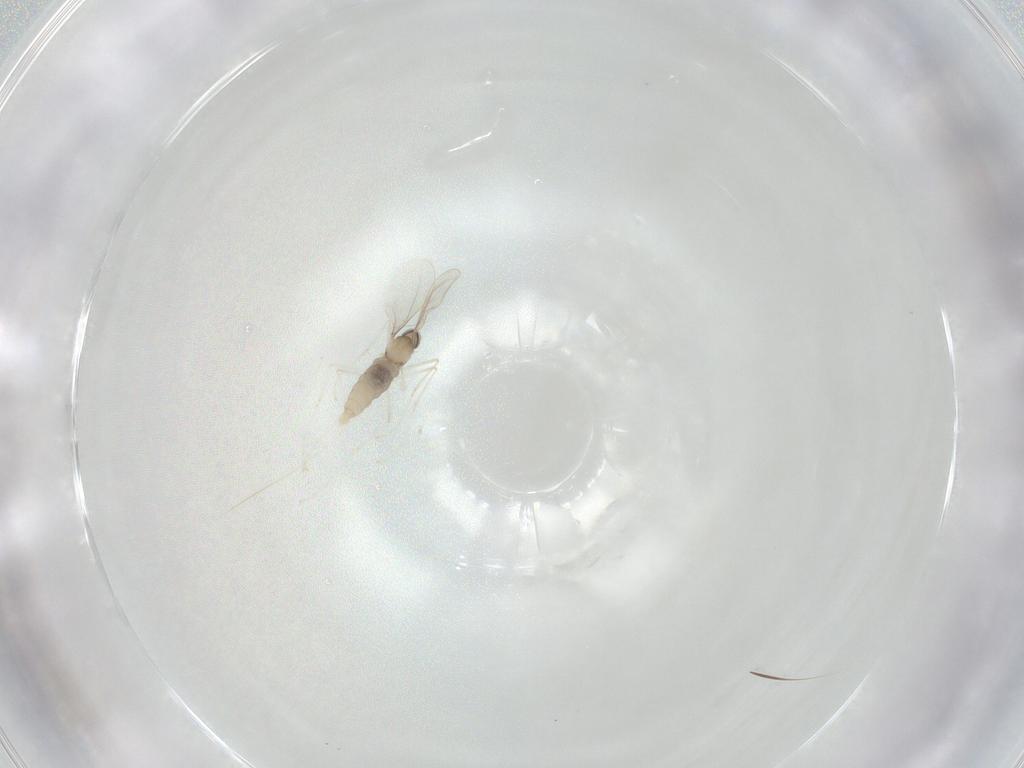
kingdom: Animalia
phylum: Arthropoda
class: Insecta
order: Diptera
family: Cecidomyiidae
